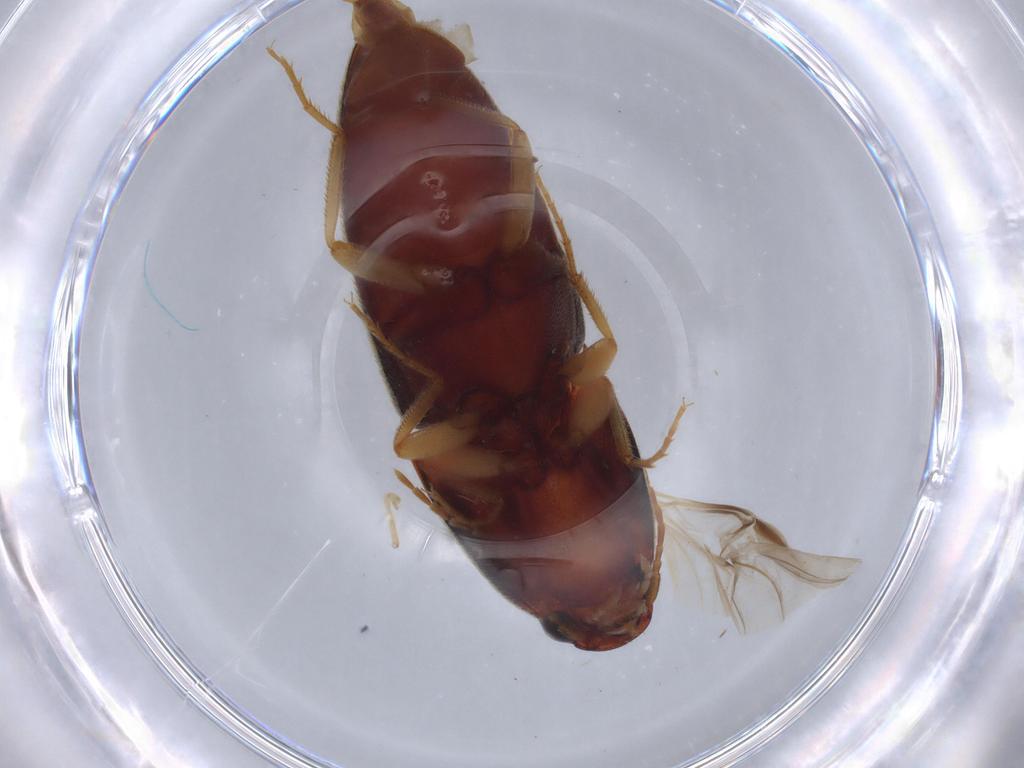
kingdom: Animalia
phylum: Arthropoda
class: Insecta
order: Coleoptera
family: Elateridae
